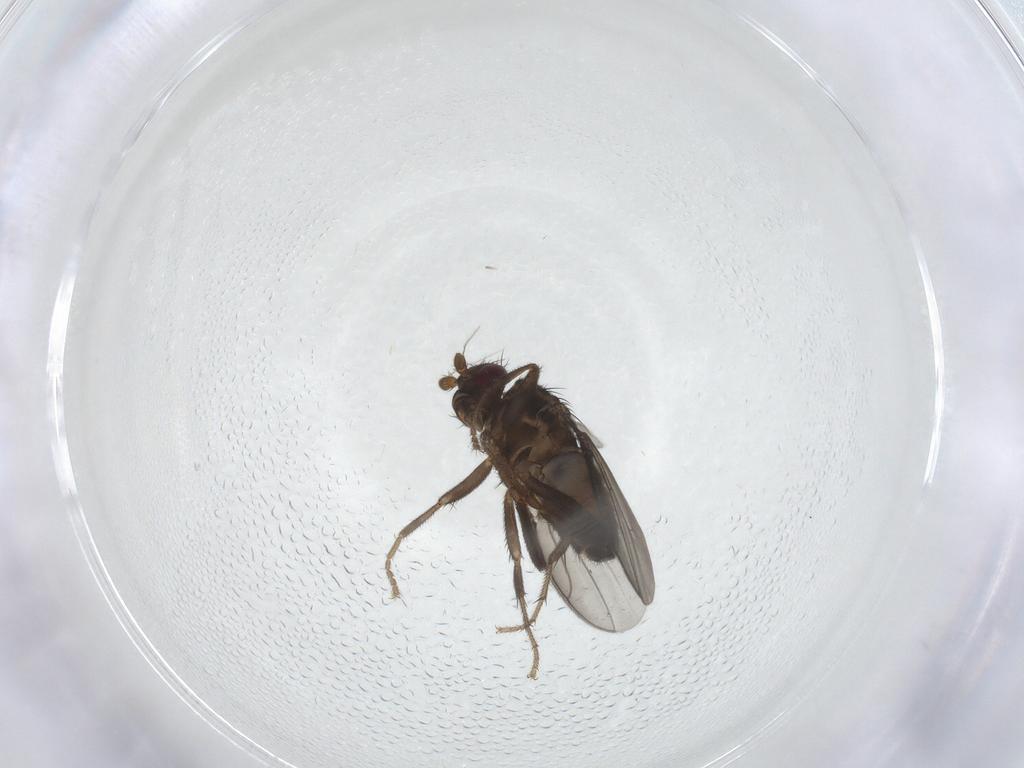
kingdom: Animalia
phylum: Arthropoda
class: Insecta
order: Diptera
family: Sphaeroceridae
